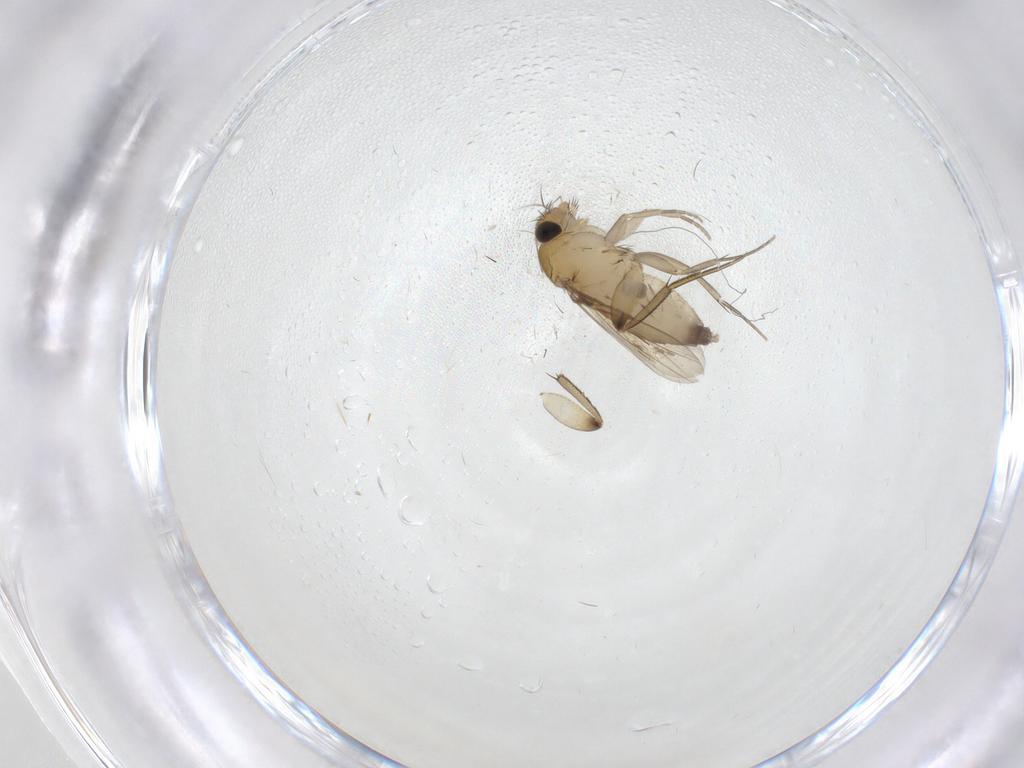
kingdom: Animalia
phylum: Arthropoda
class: Insecta
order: Diptera
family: Phoridae
